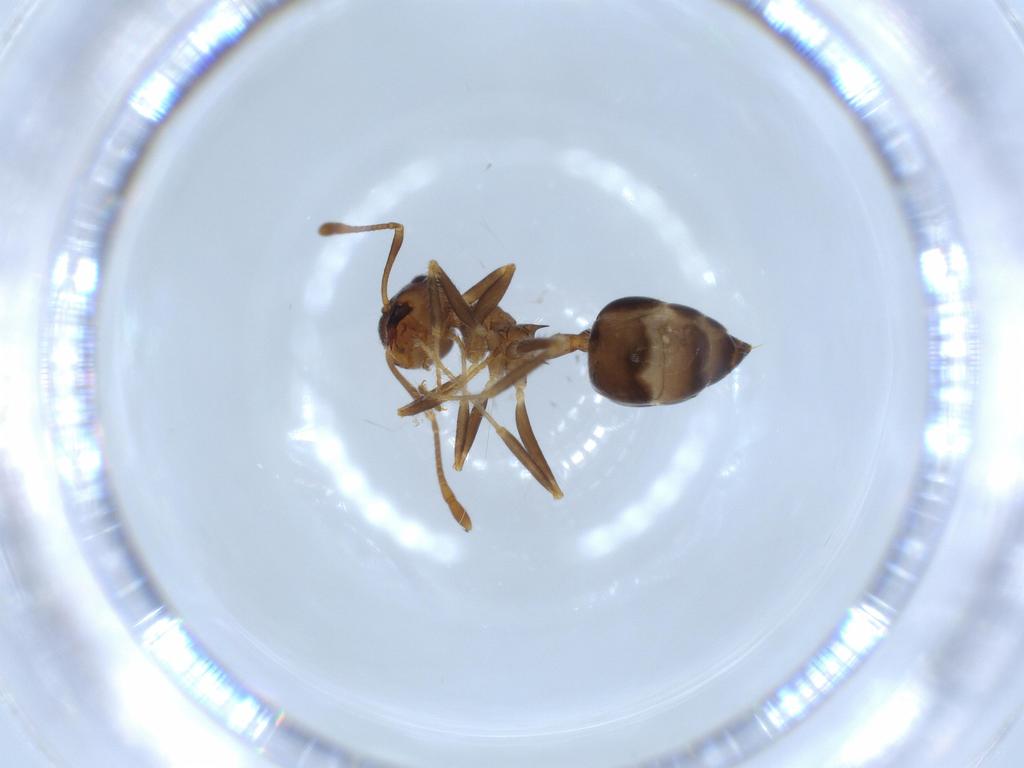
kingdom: Animalia
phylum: Arthropoda
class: Insecta
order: Hymenoptera
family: Formicidae
